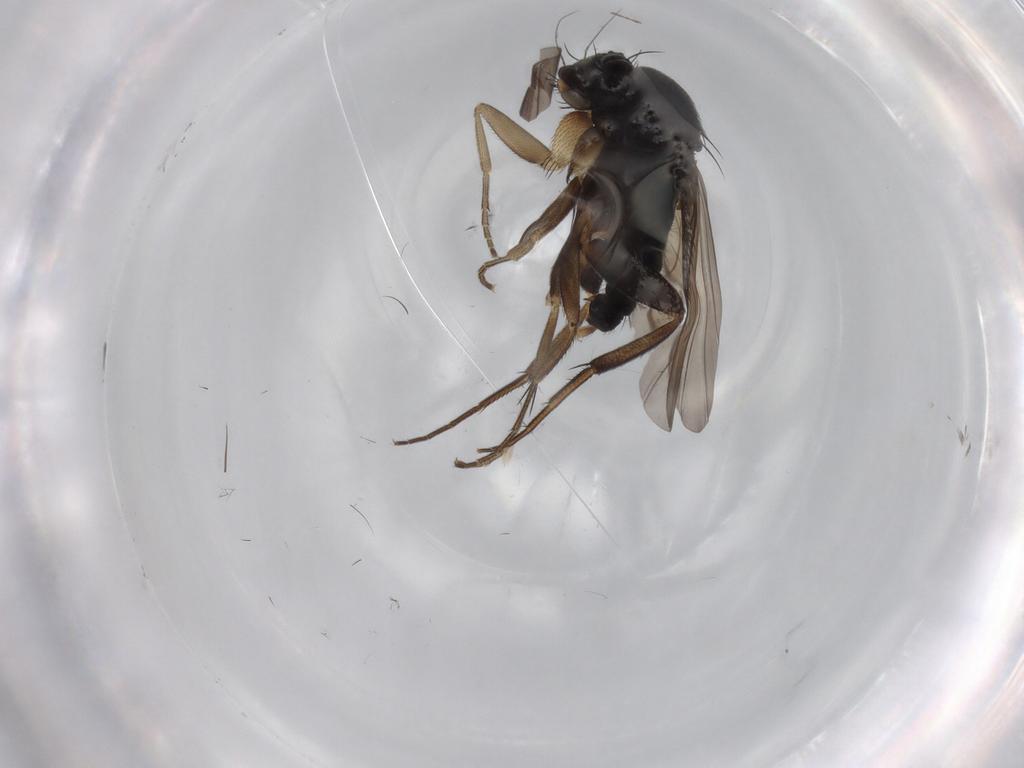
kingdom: Animalia
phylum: Arthropoda
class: Insecta
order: Diptera
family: Phoridae
